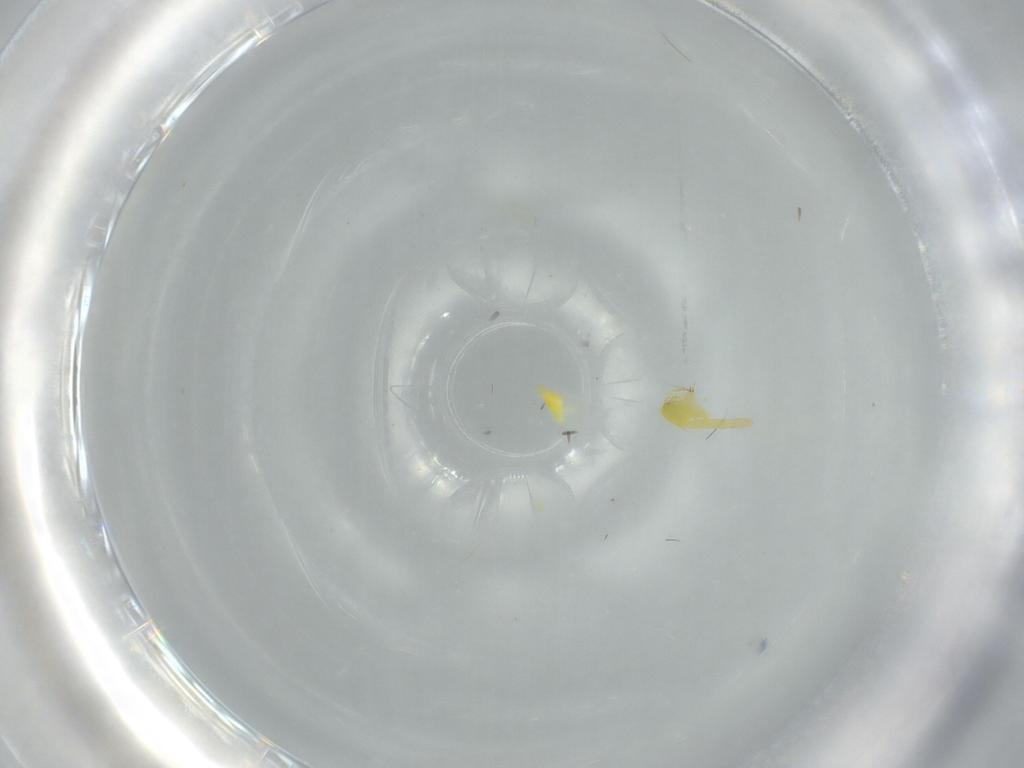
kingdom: Animalia
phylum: Arthropoda
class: Insecta
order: Hemiptera
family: Aleyrodidae
